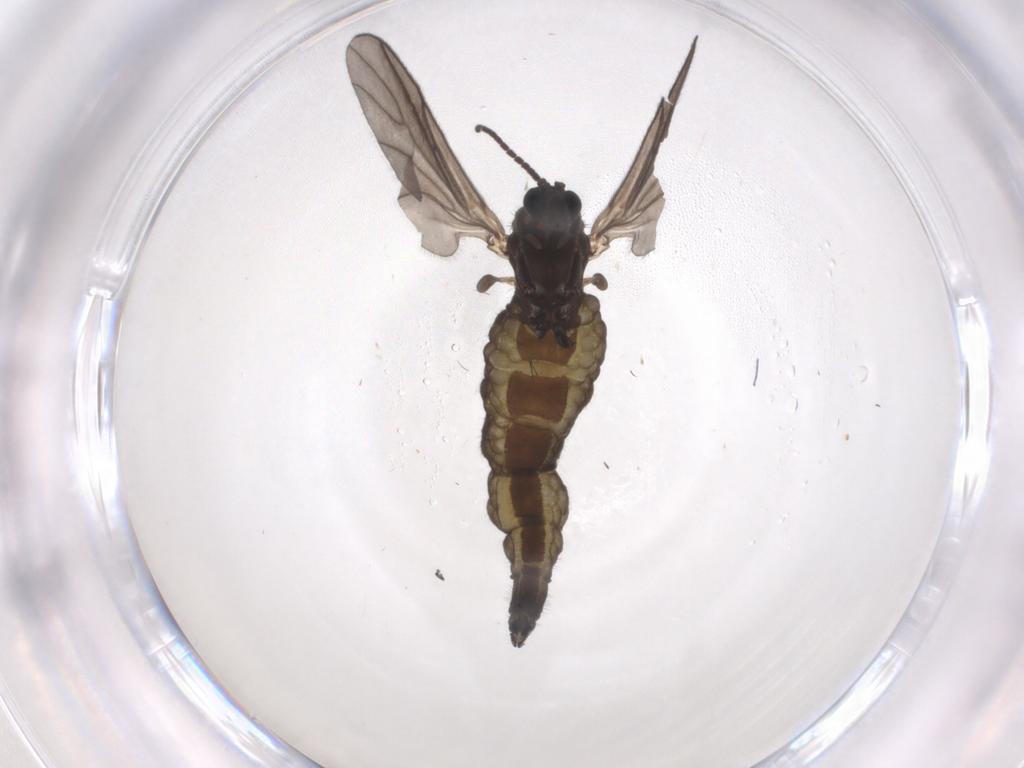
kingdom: Animalia
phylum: Arthropoda
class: Insecta
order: Diptera
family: Sciaridae
